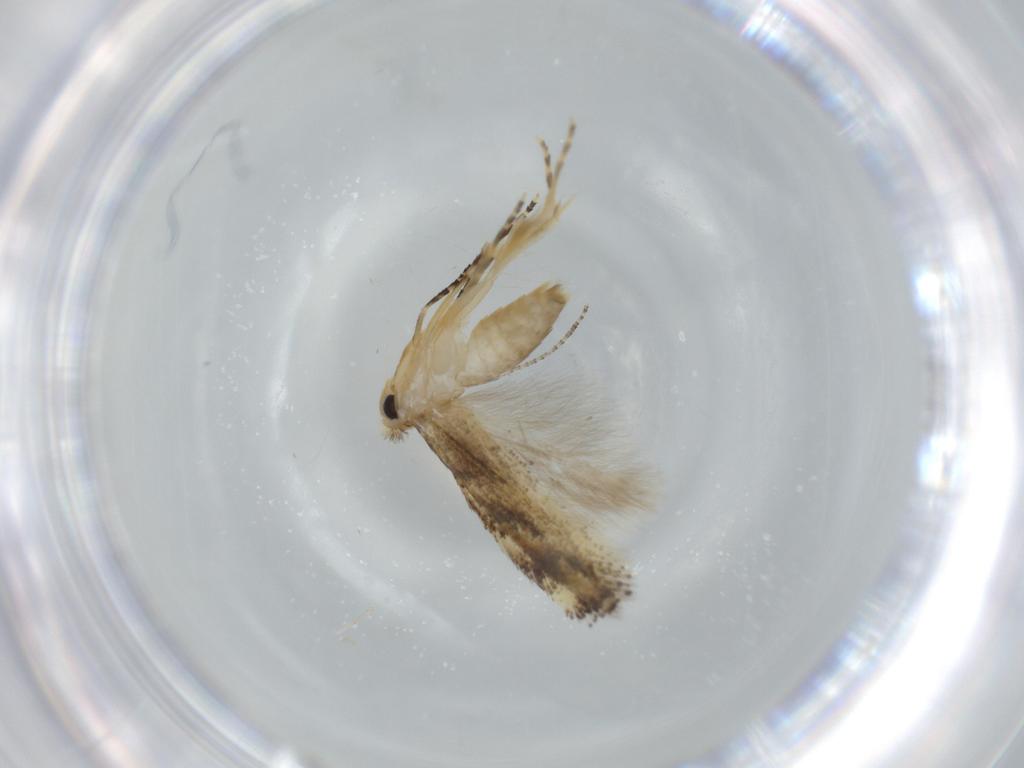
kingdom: Animalia
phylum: Arthropoda
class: Insecta
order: Lepidoptera
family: Bucculatricidae
